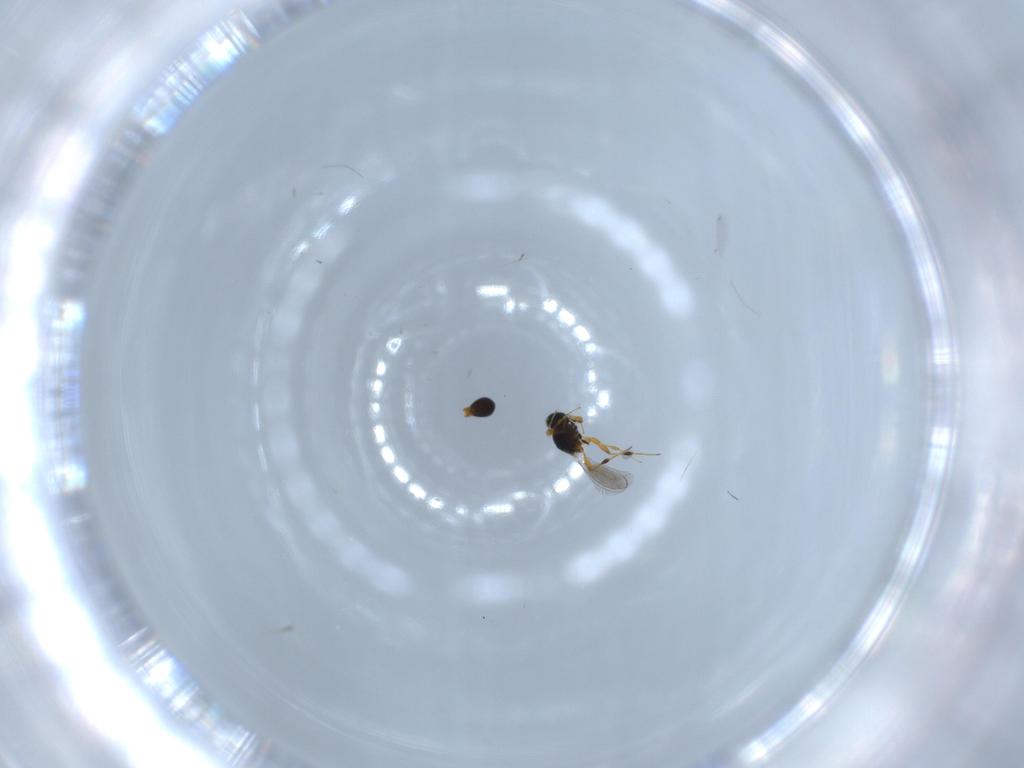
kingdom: Animalia
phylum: Arthropoda
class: Insecta
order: Hymenoptera
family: Platygastridae
